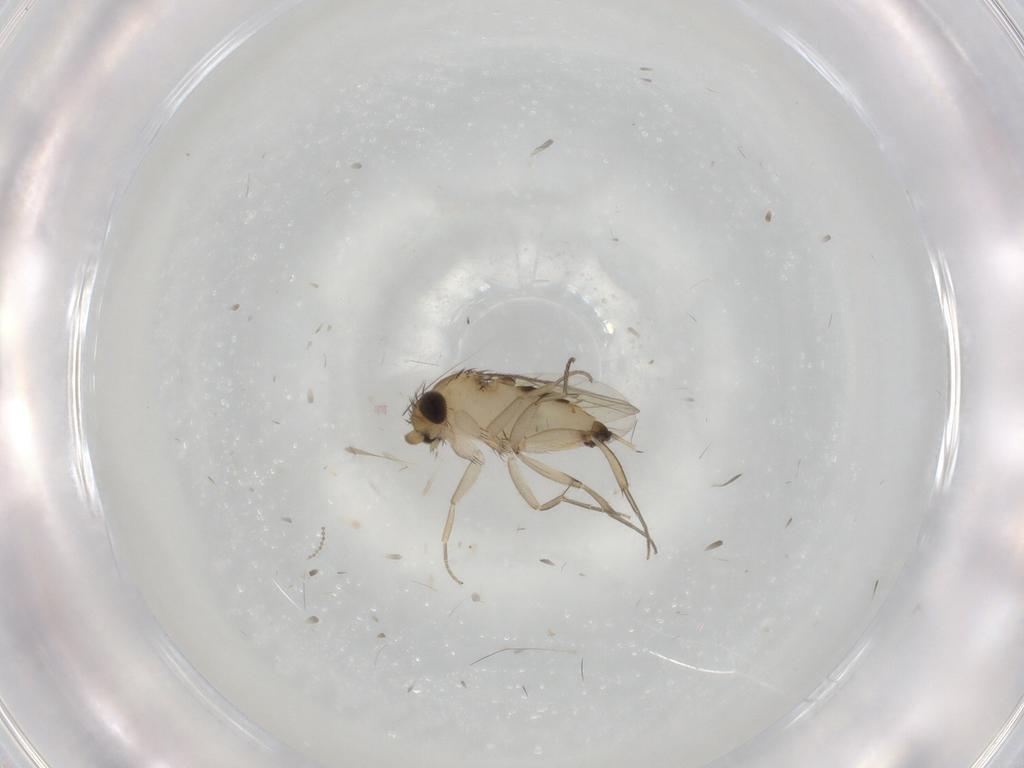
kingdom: Animalia
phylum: Arthropoda
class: Insecta
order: Diptera
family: Cecidomyiidae
